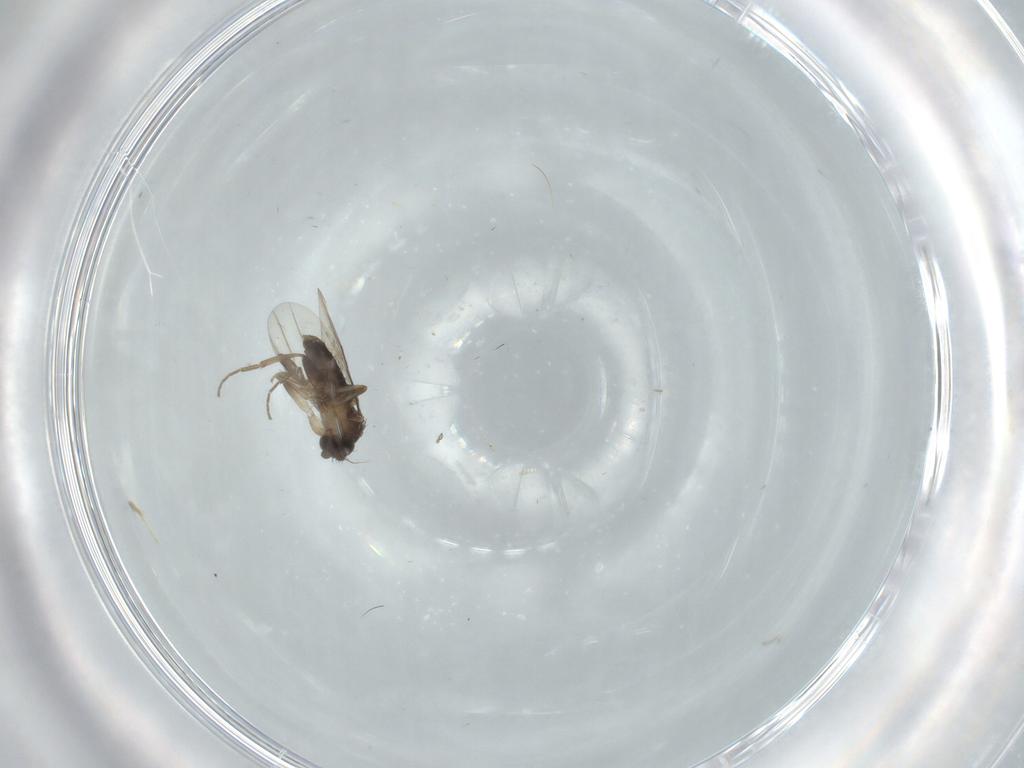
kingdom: Animalia
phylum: Arthropoda
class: Insecta
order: Diptera
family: Phoridae
